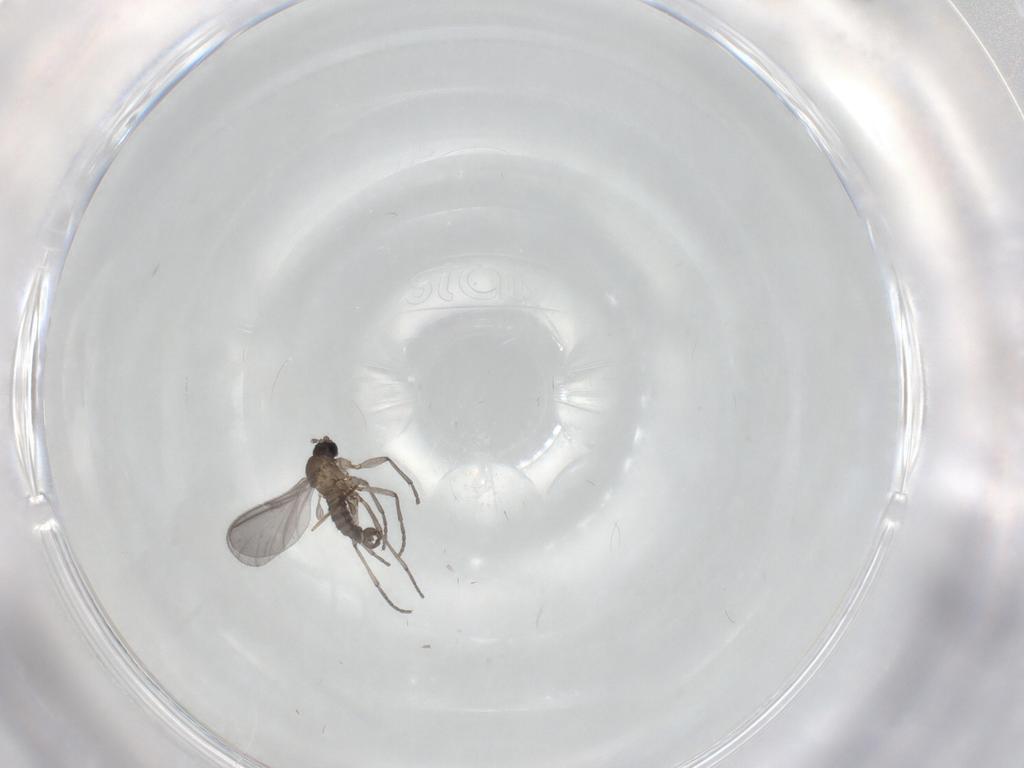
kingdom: Animalia
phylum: Arthropoda
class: Insecta
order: Diptera
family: Sciaridae
